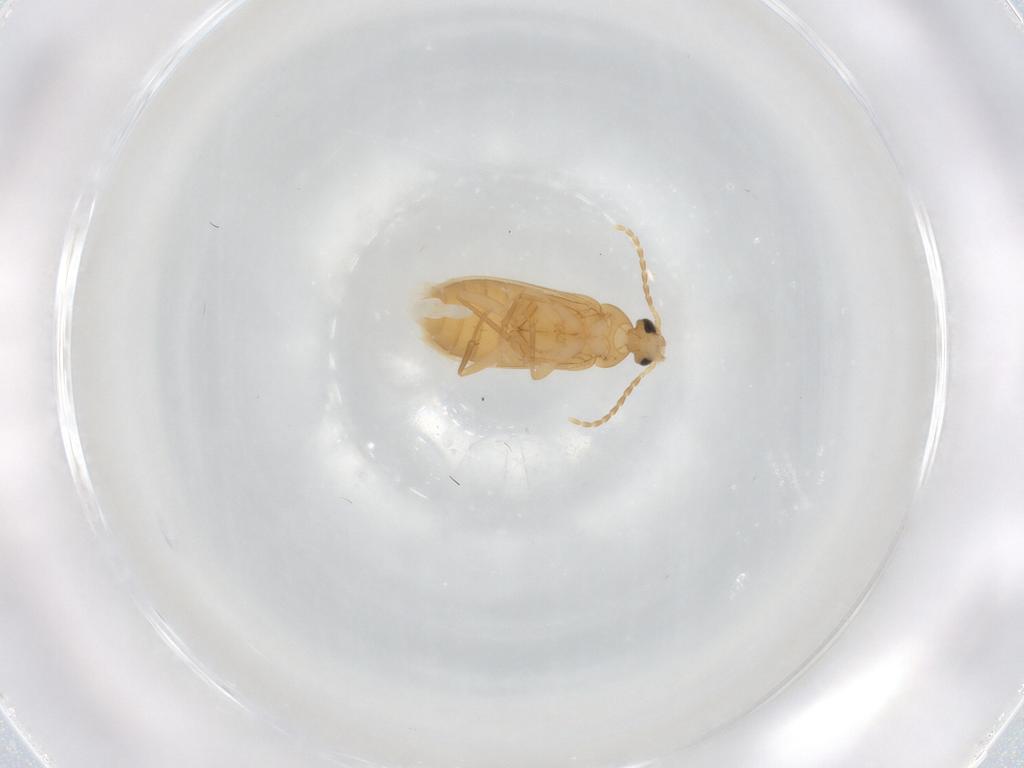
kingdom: Animalia
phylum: Arthropoda
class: Insecta
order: Coleoptera
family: Scraptiidae
